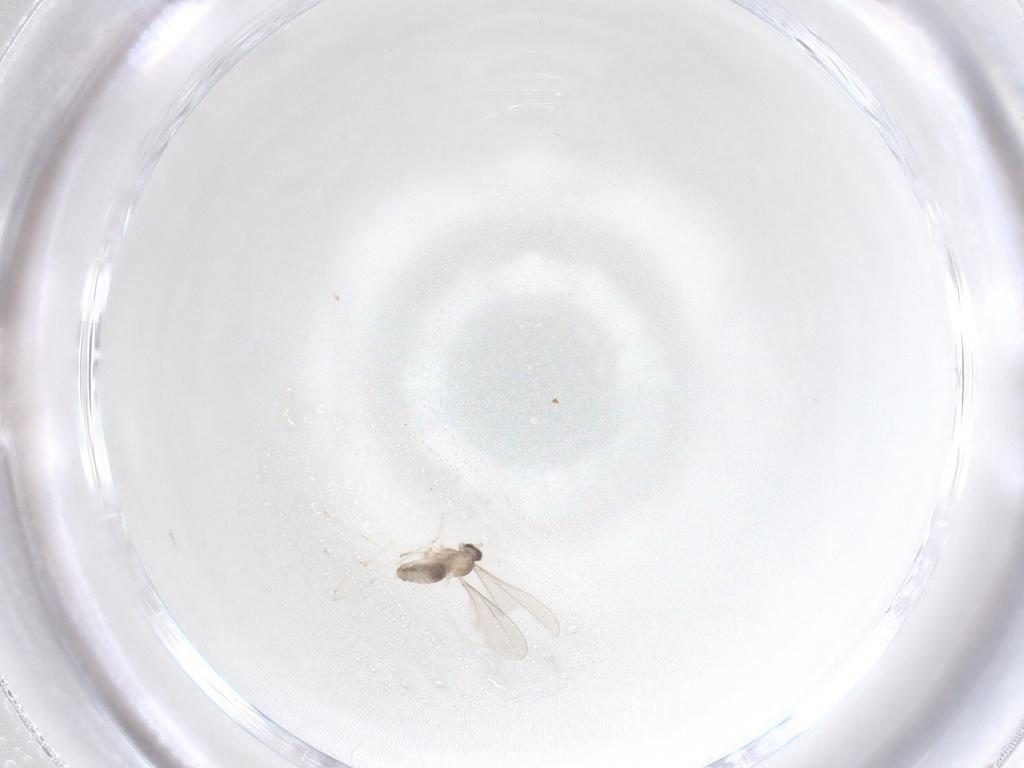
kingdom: Animalia
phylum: Arthropoda
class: Insecta
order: Diptera
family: Cecidomyiidae
